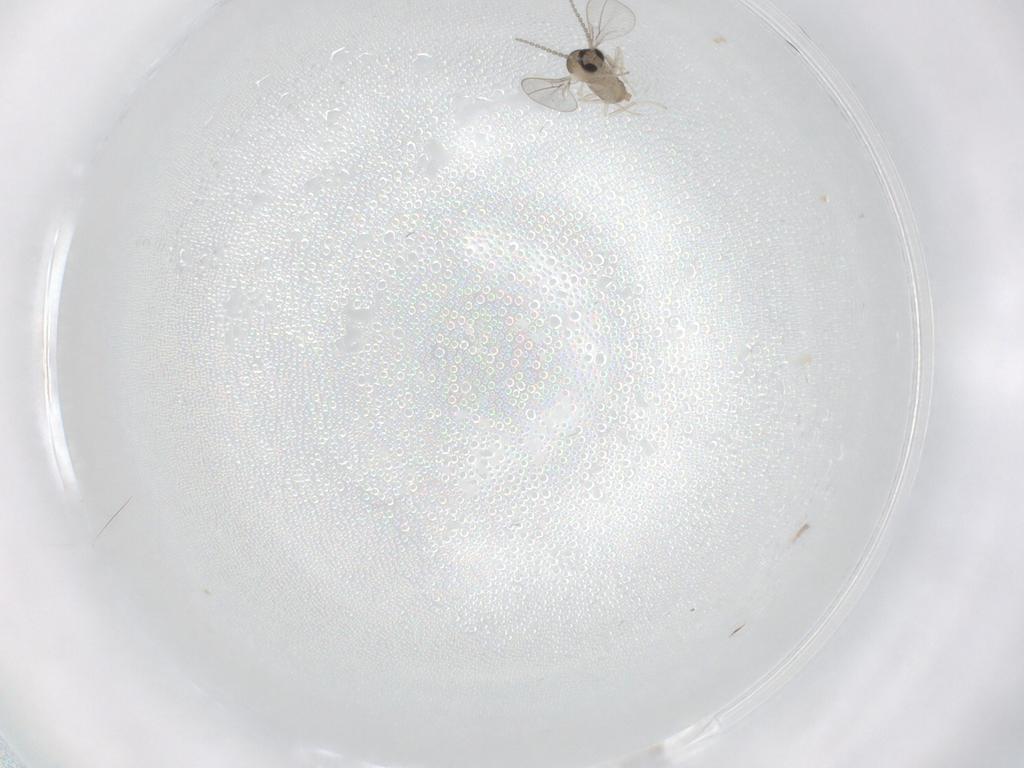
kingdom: Animalia
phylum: Arthropoda
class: Insecta
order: Diptera
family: Cecidomyiidae
